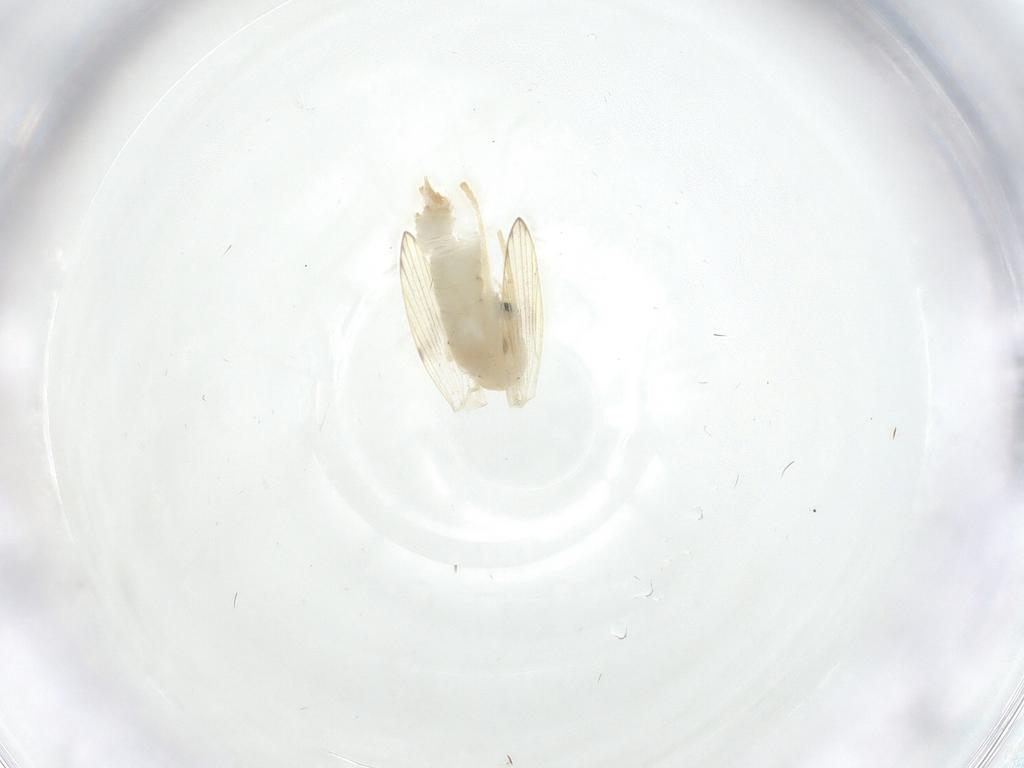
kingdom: Animalia
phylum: Arthropoda
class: Insecta
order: Diptera
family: Psychodidae
